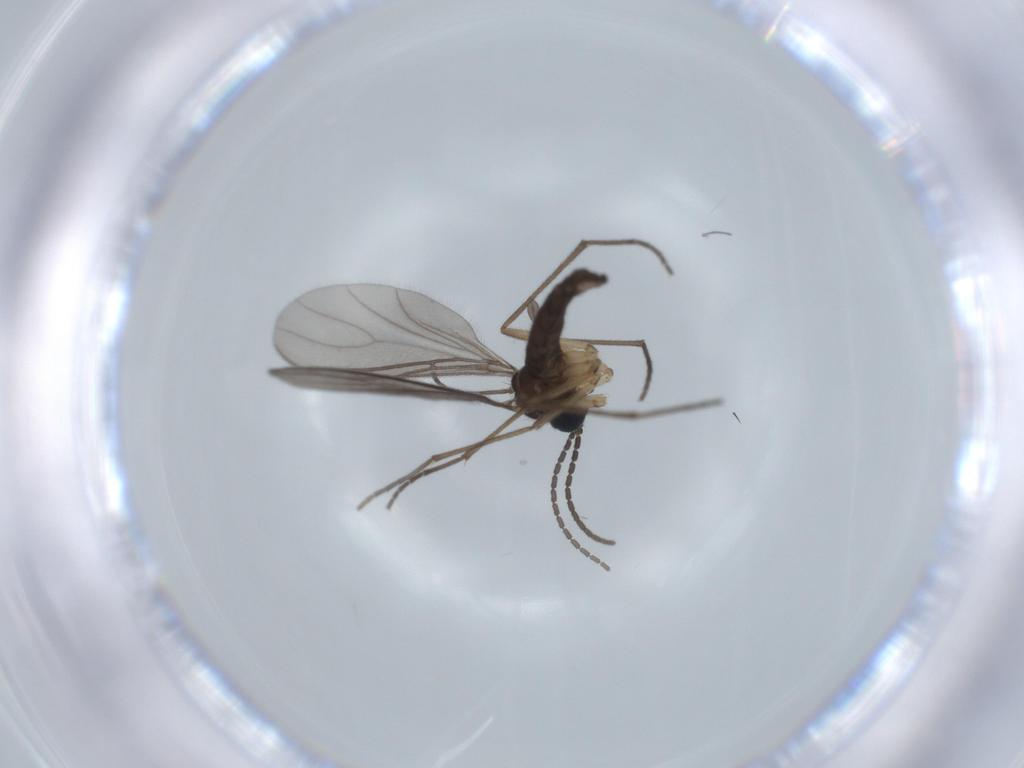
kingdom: Animalia
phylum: Arthropoda
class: Insecta
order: Diptera
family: Sciaridae
